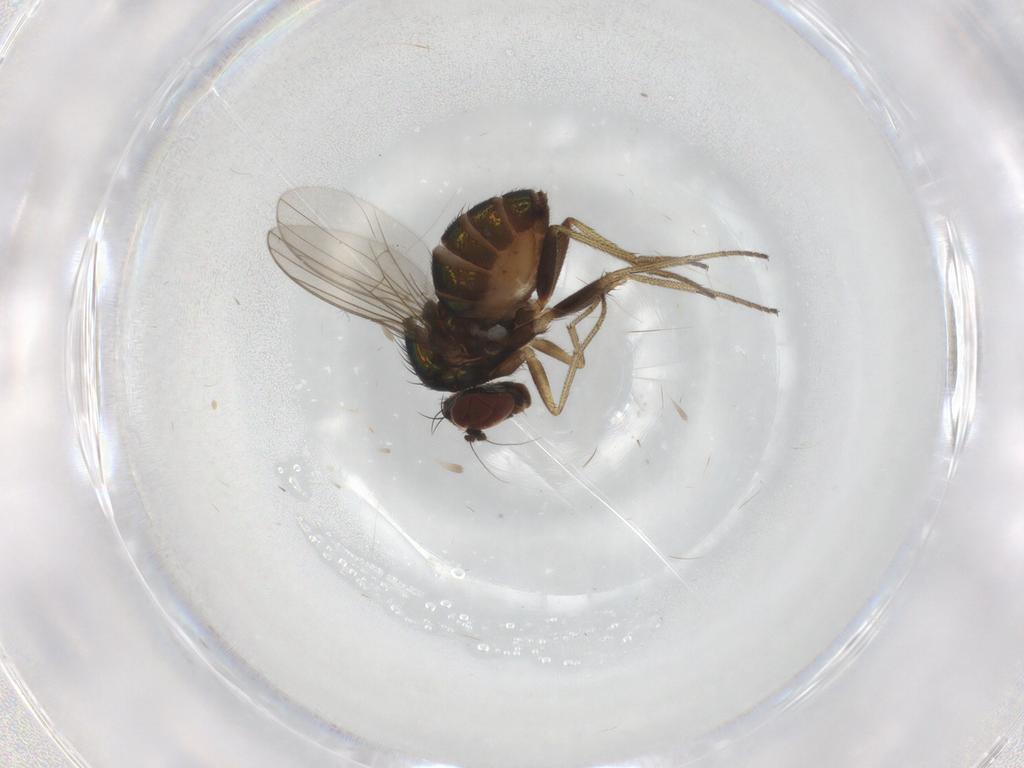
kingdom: Animalia
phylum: Arthropoda
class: Insecta
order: Diptera
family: Dolichopodidae
